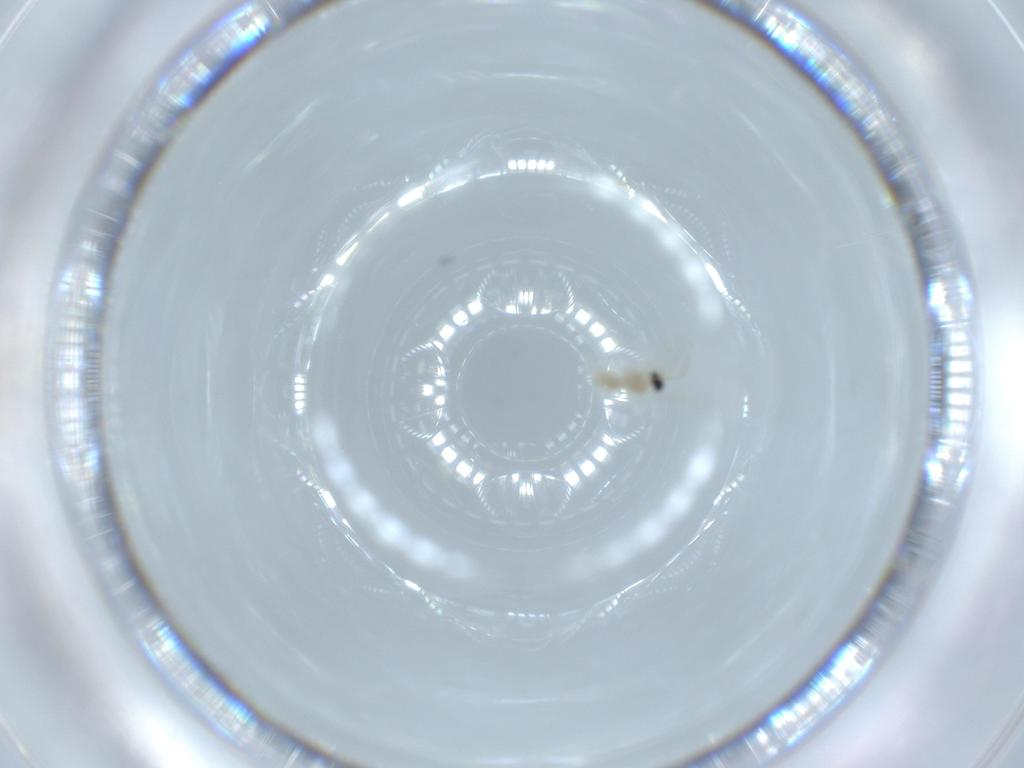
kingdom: Animalia
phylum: Arthropoda
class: Insecta
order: Diptera
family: Cecidomyiidae
